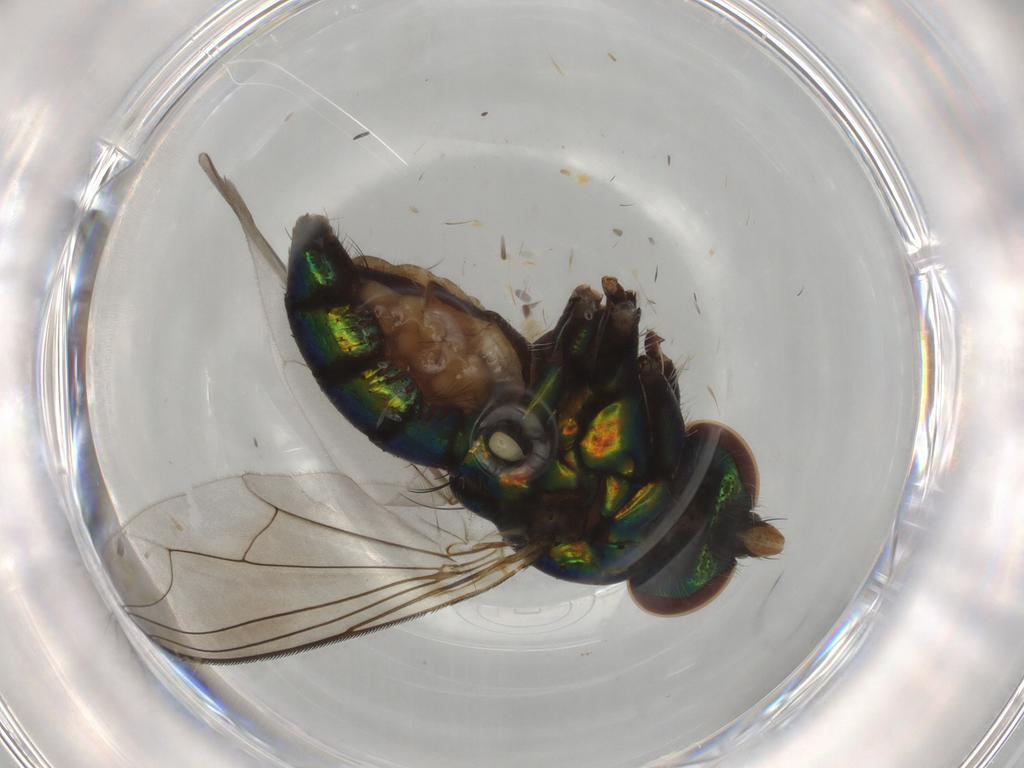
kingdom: Animalia
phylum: Arthropoda
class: Insecta
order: Diptera
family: Dolichopodidae
